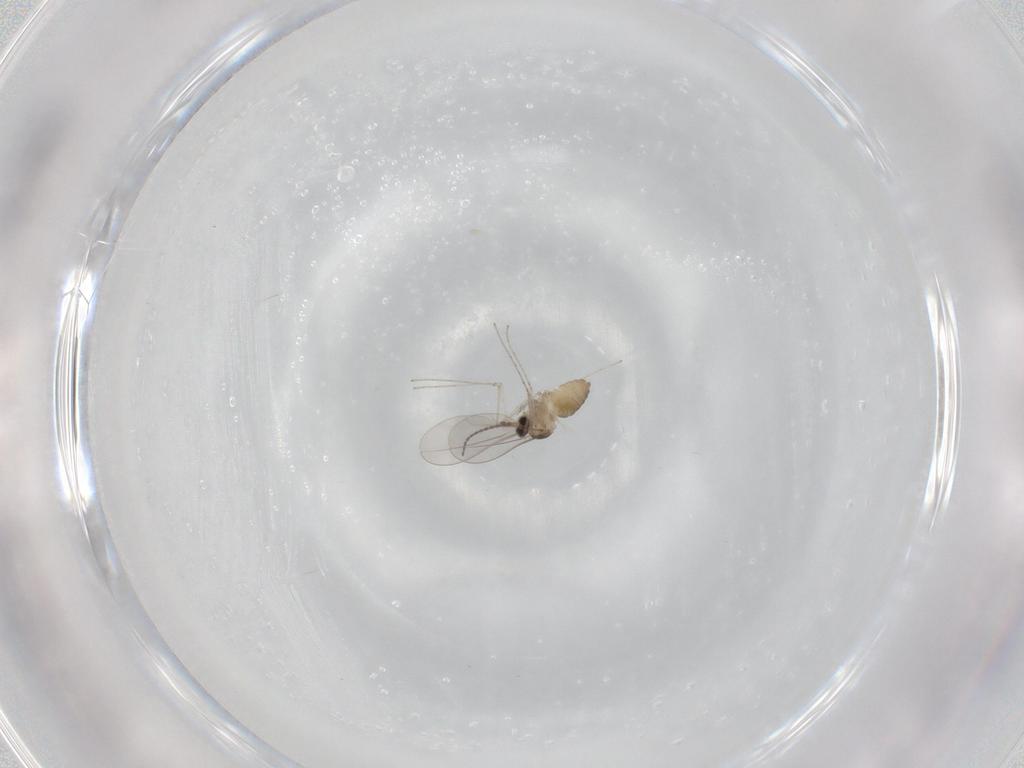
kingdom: Animalia
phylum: Arthropoda
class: Insecta
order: Diptera
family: Cecidomyiidae
